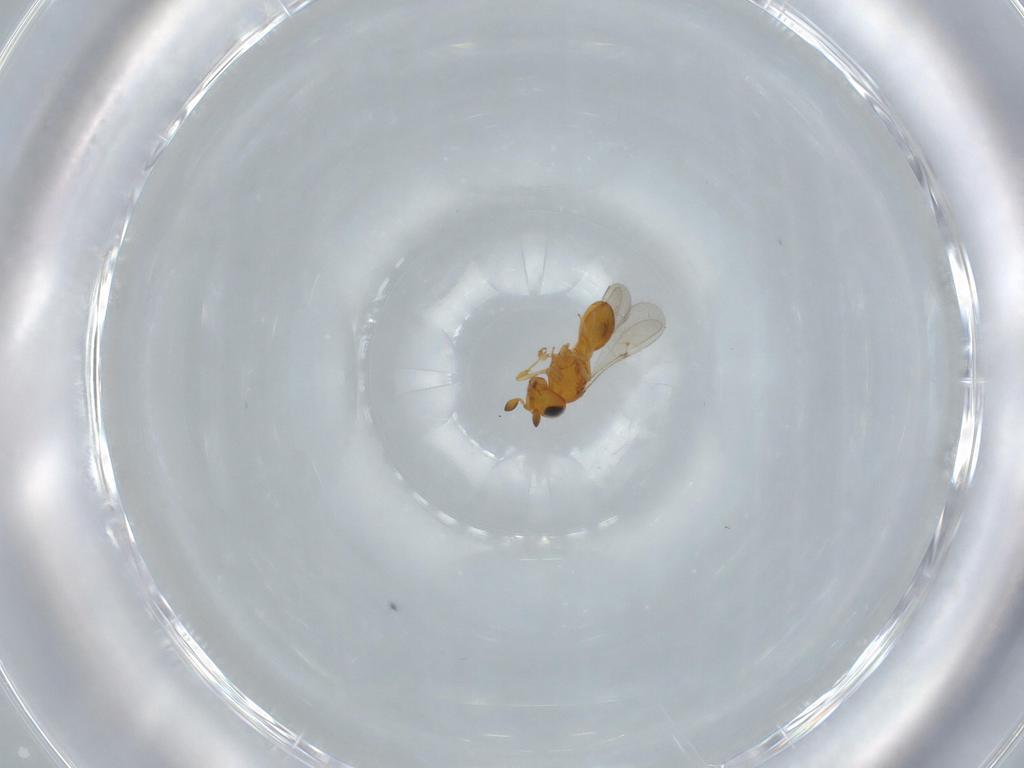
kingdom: Animalia
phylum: Arthropoda
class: Insecta
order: Hymenoptera
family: Scelionidae
